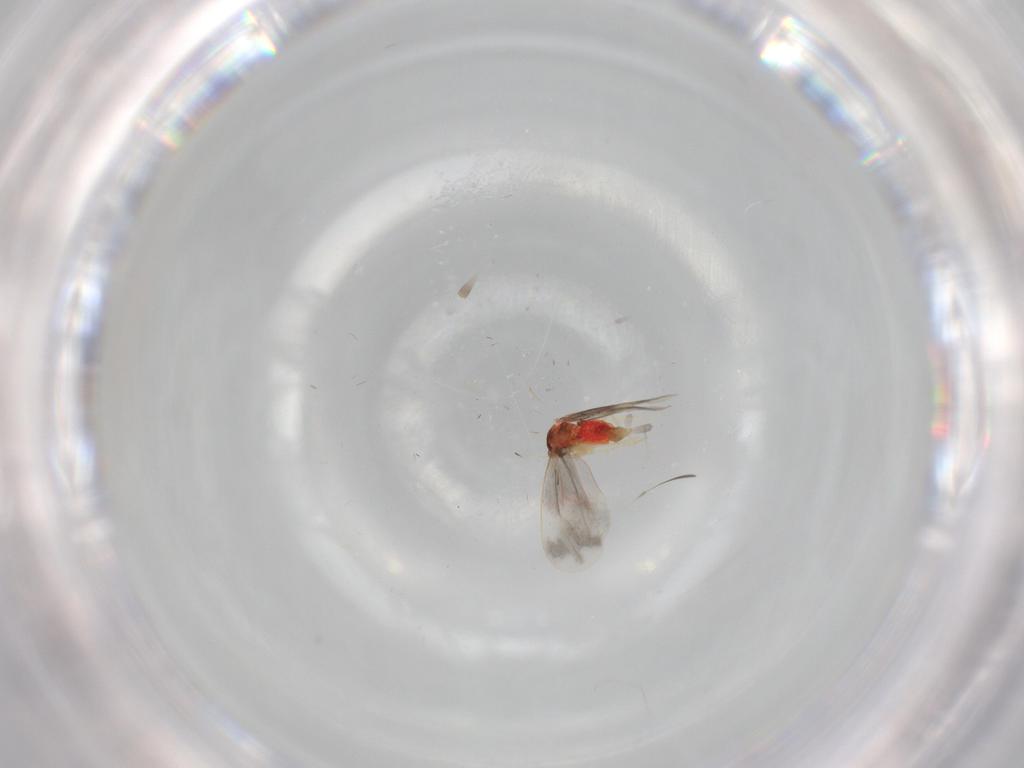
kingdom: Animalia
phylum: Arthropoda
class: Insecta
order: Hemiptera
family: Aleyrodidae
